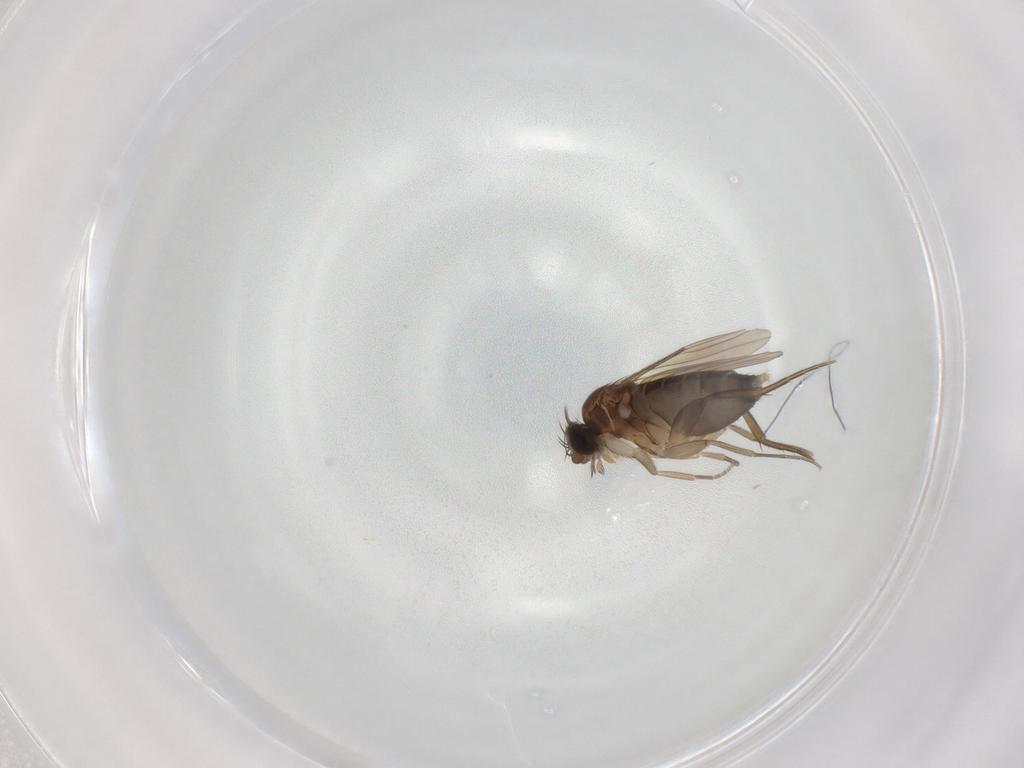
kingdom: Animalia
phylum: Arthropoda
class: Insecta
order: Diptera
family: Phoridae
